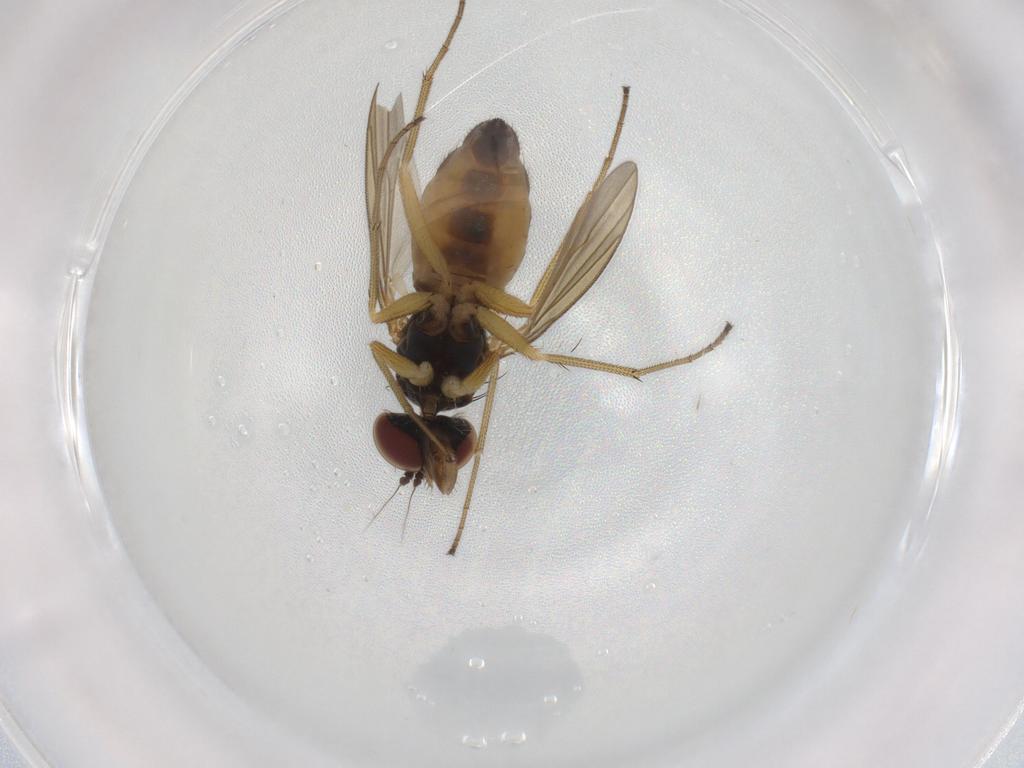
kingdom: Animalia
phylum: Arthropoda
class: Insecta
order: Diptera
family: Dolichopodidae
